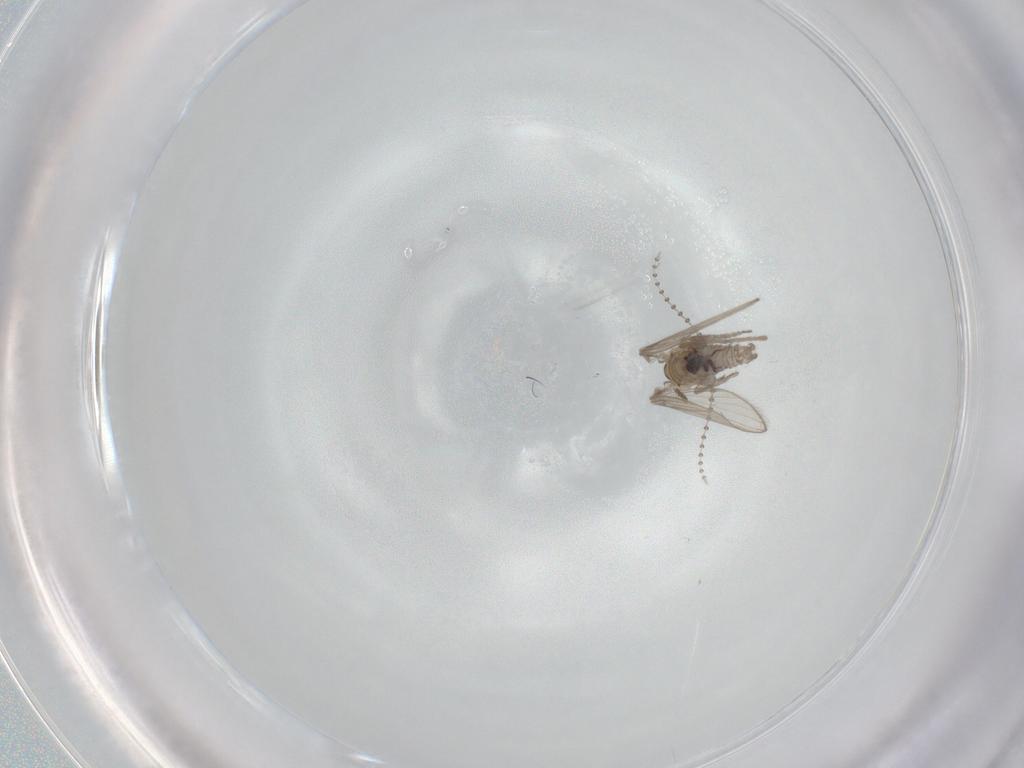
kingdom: Animalia
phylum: Arthropoda
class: Insecta
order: Diptera
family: Psychodidae
